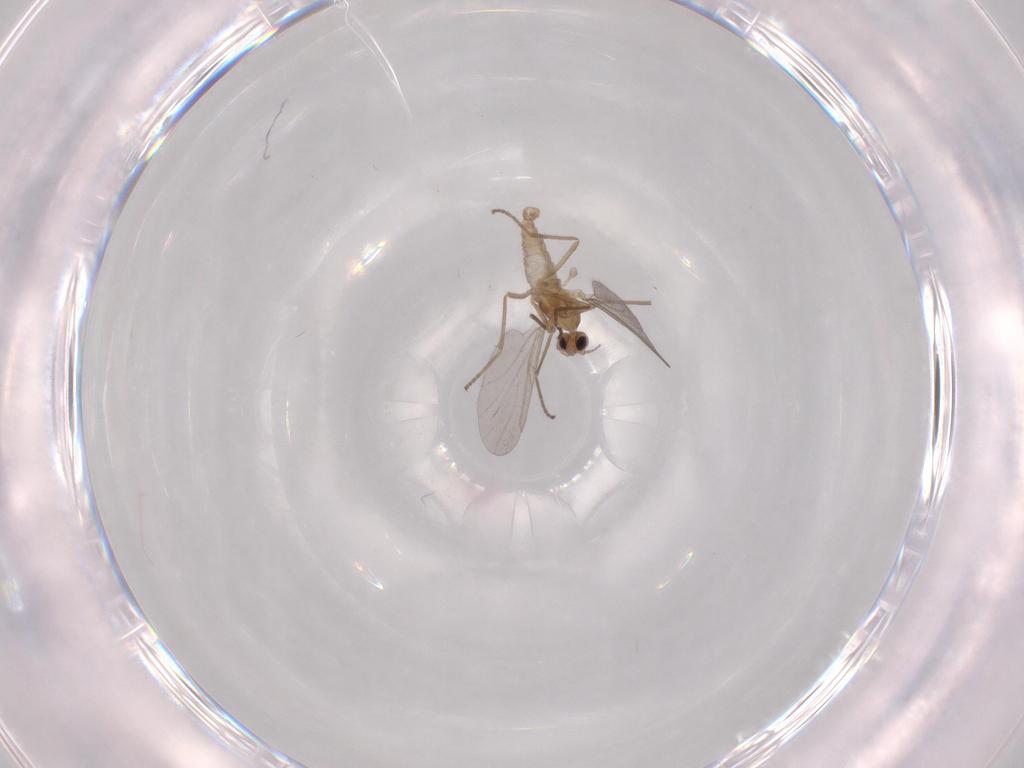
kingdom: Animalia
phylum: Arthropoda
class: Insecta
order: Diptera
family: Cecidomyiidae
